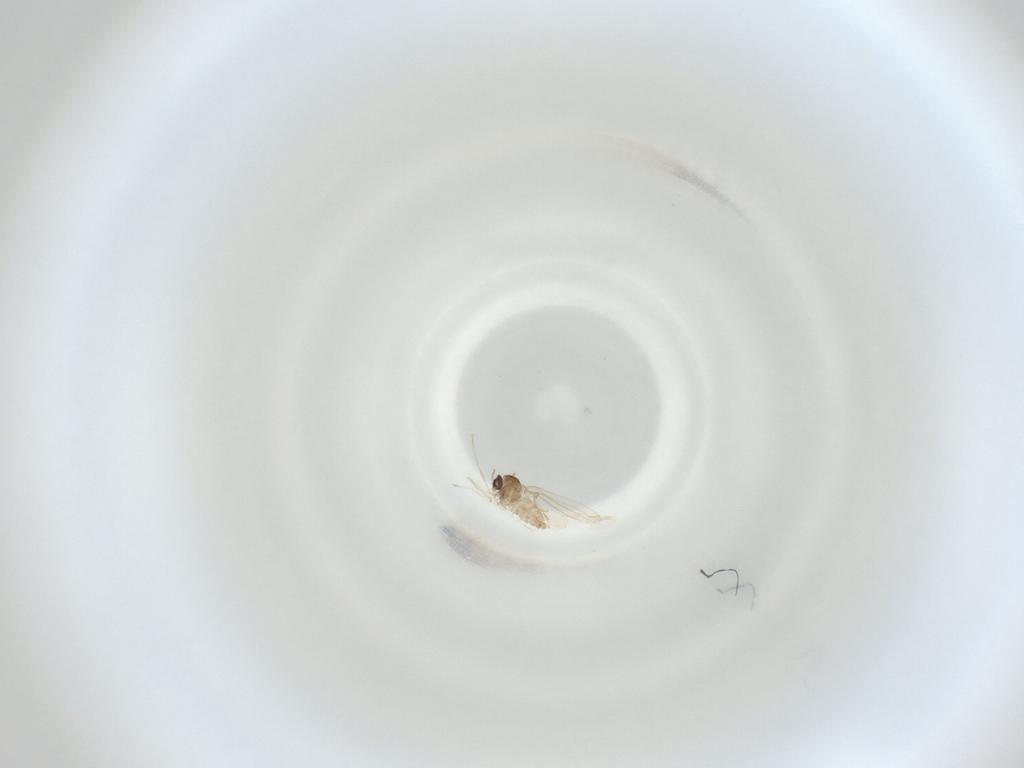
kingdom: Animalia
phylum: Arthropoda
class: Insecta
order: Diptera
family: Cecidomyiidae
